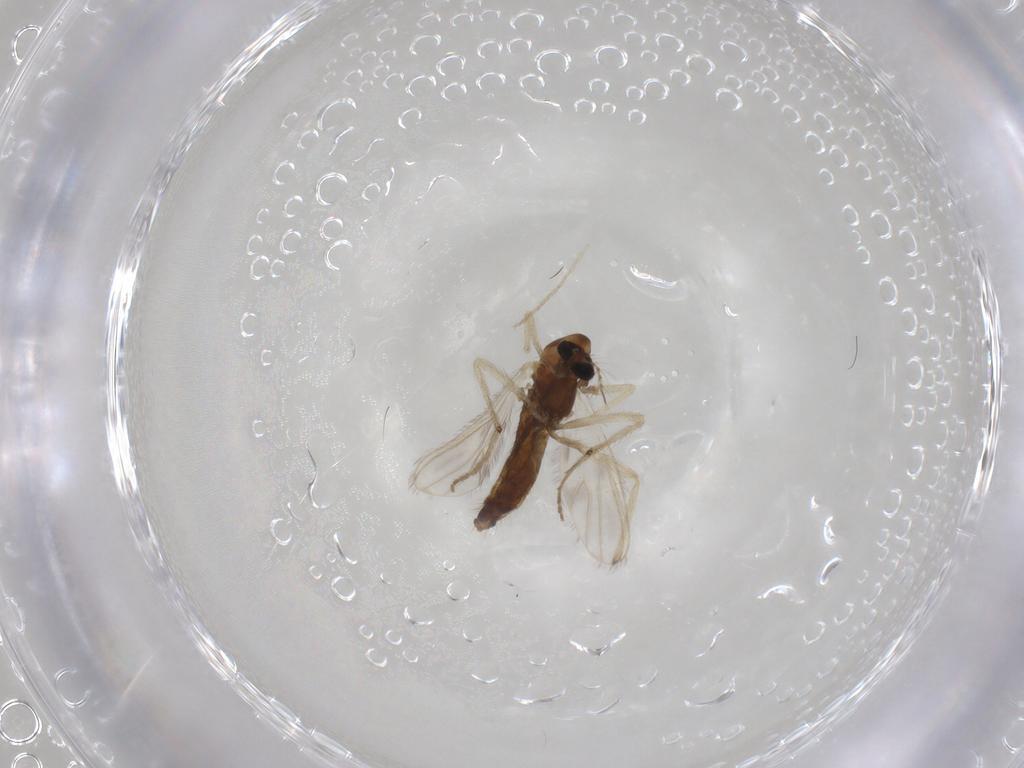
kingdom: Animalia
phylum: Arthropoda
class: Insecta
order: Diptera
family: Chironomidae
